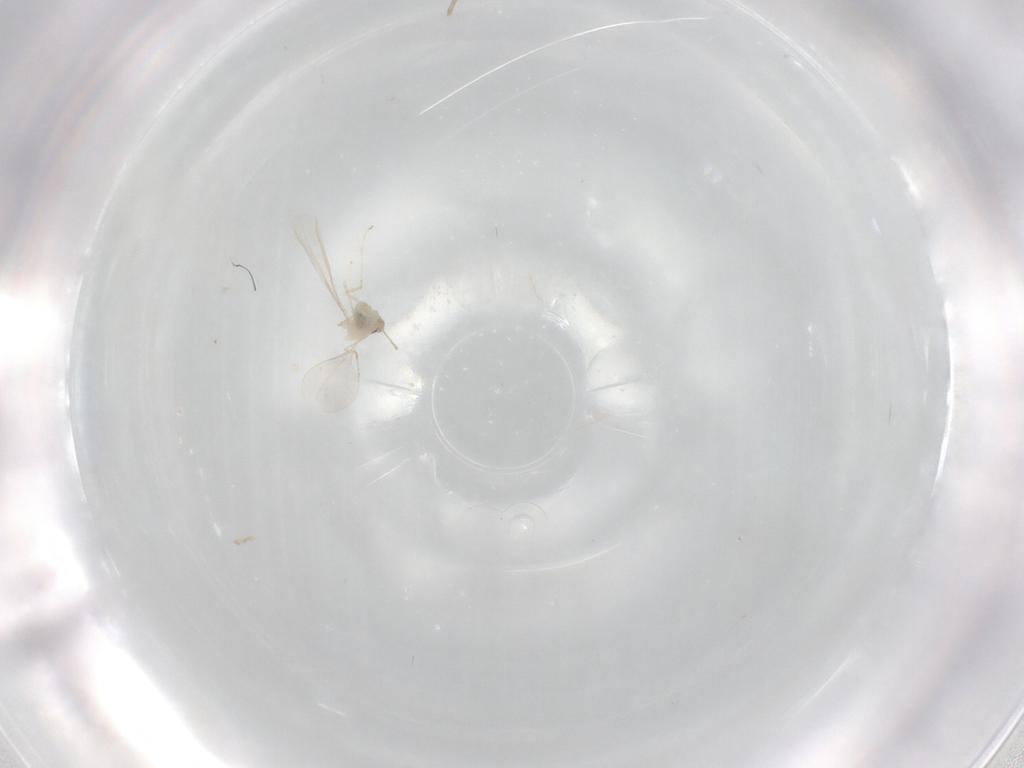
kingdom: Animalia
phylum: Arthropoda
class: Insecta
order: Diptera
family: Cecidomyiidae
